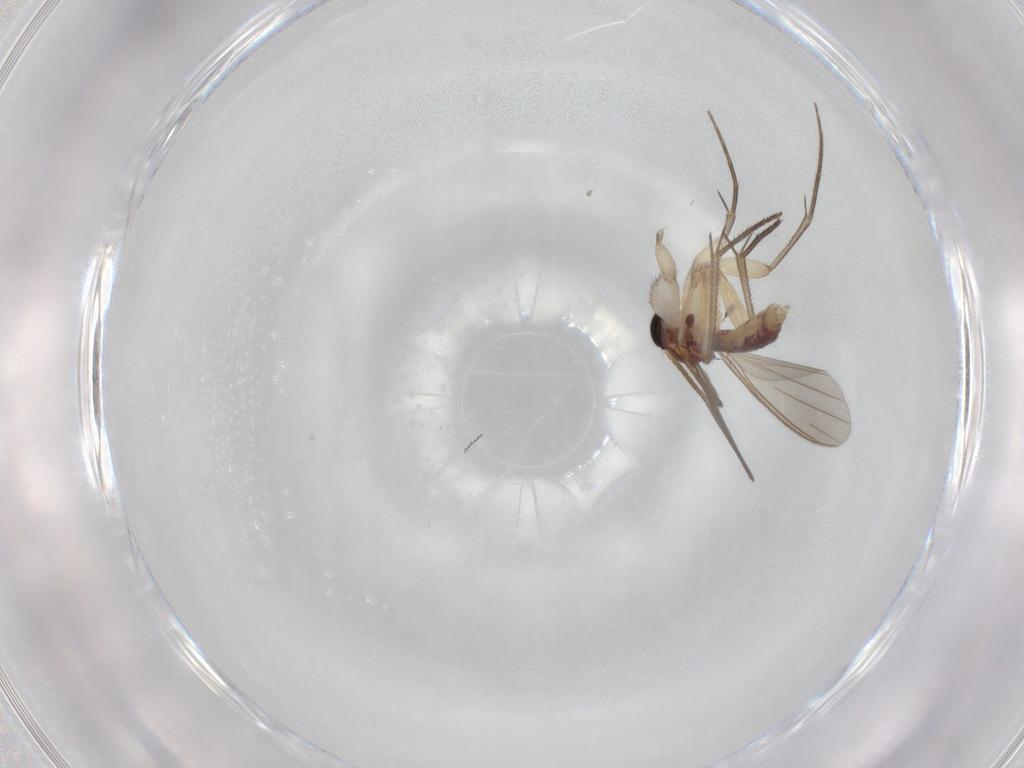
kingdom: Animalia
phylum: Arthropoda
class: Insecta
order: Diptera
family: Mycetophilidae
